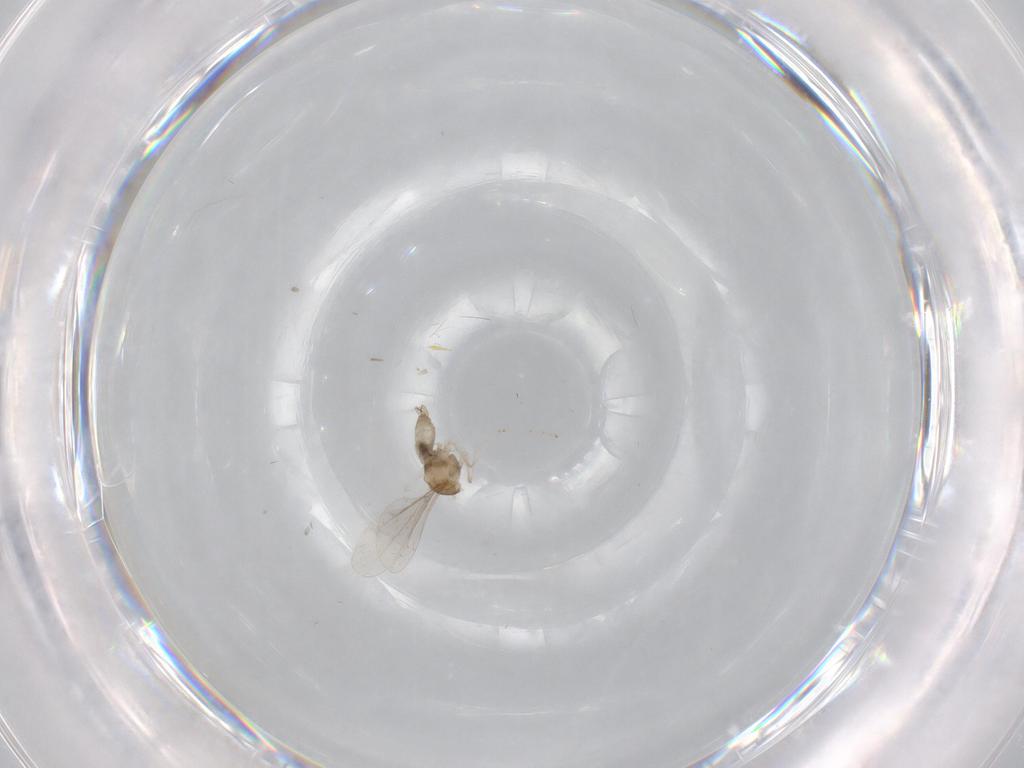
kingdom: Animalia
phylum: Arthropoda
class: Insecta
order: Diptera
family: Cecidomyiidae
